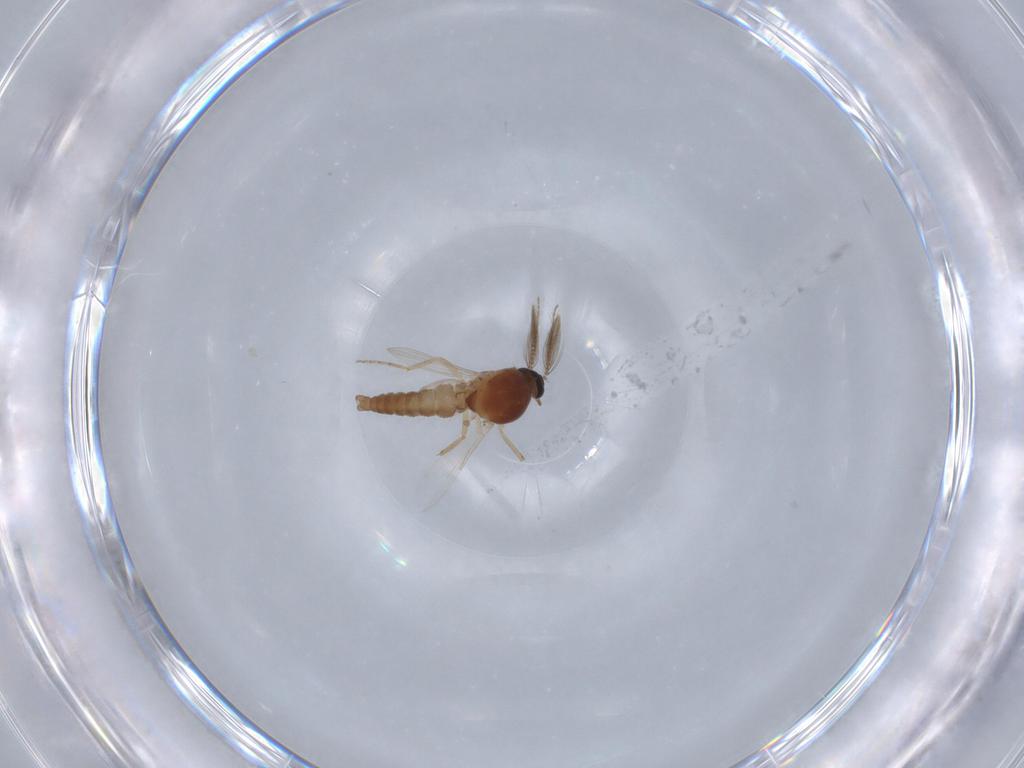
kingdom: Animalia
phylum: Arthropoda
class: Insecta
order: Diptera
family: Ceratopogonidae
